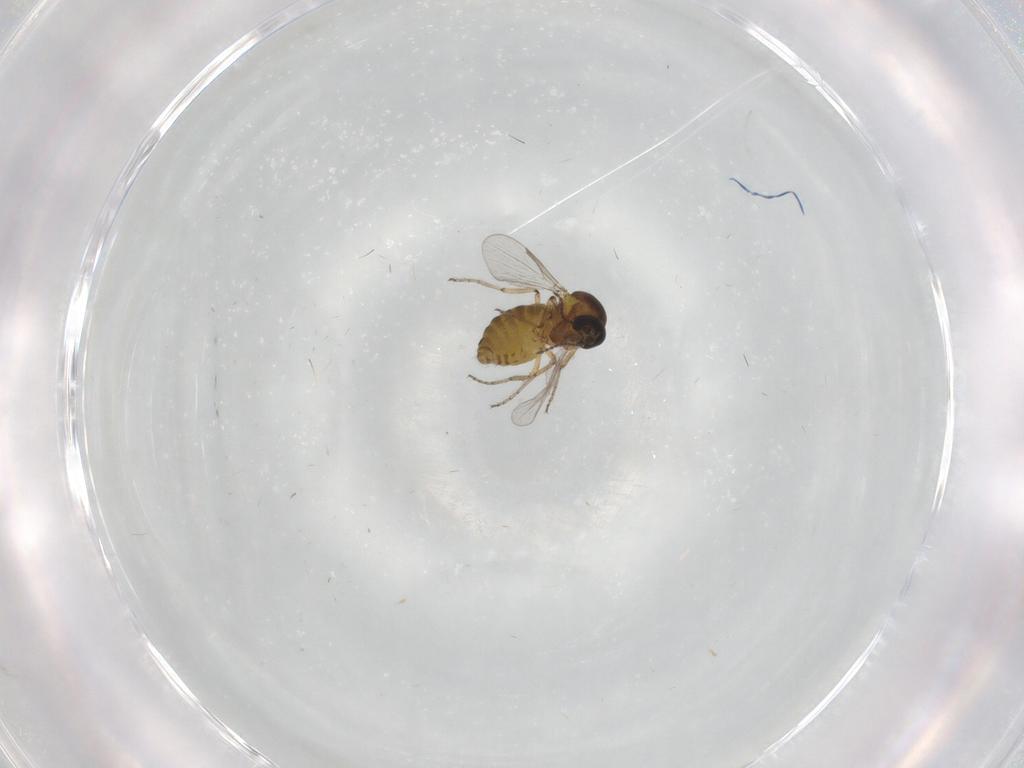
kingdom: Animalia
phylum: Arthropoda
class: Insecta
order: Diptera
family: Ceratopogonidae
